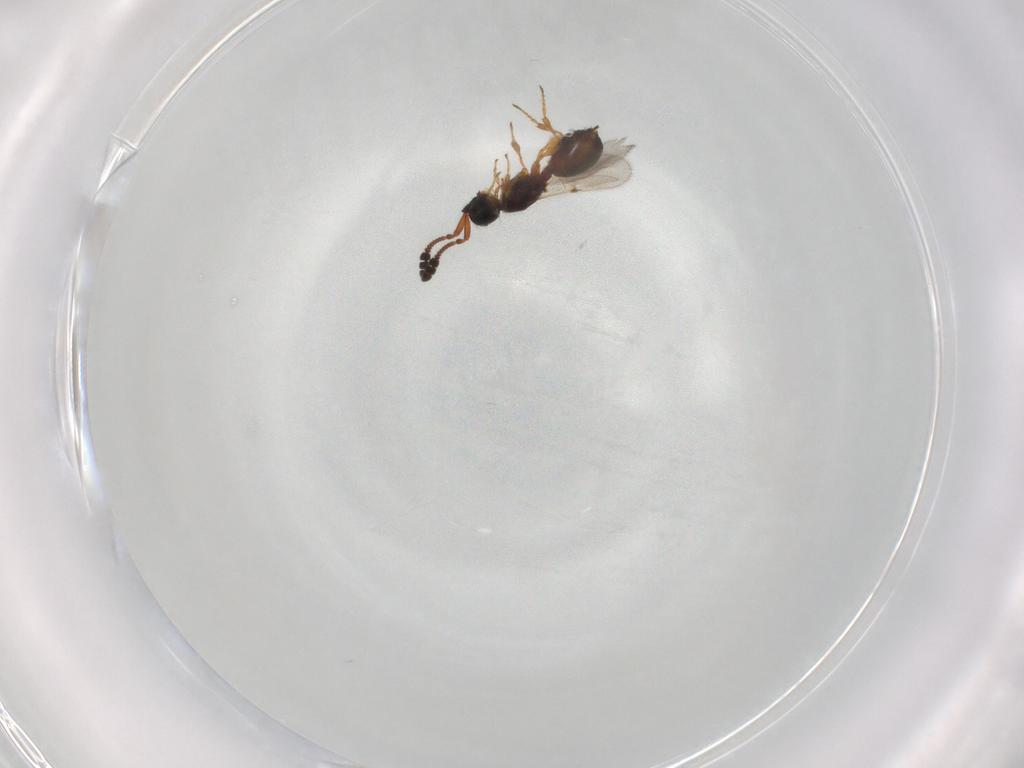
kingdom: Animalia
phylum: Arthropoda
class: Insecta
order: Hymenoptera
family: Diapriidae
